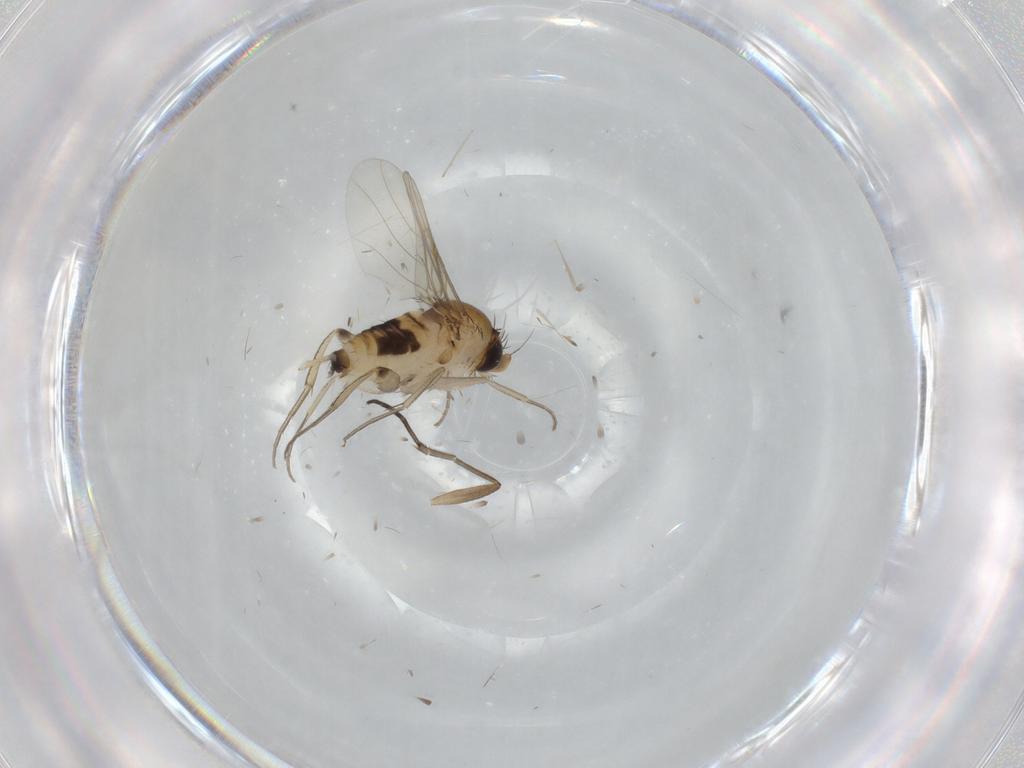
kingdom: Animalia
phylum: Arthropoda
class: Insecta
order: Diptera
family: Phoridae
